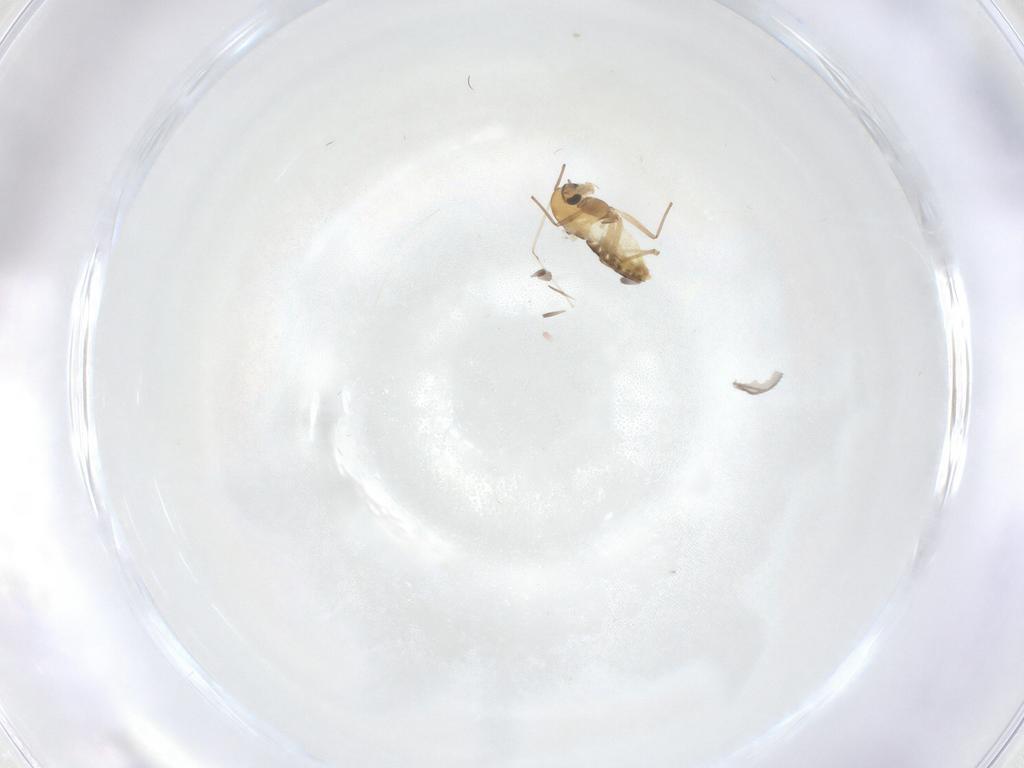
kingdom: Animalia
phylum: Arthropoda
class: Insecta
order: Diptera
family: Chironomidae
